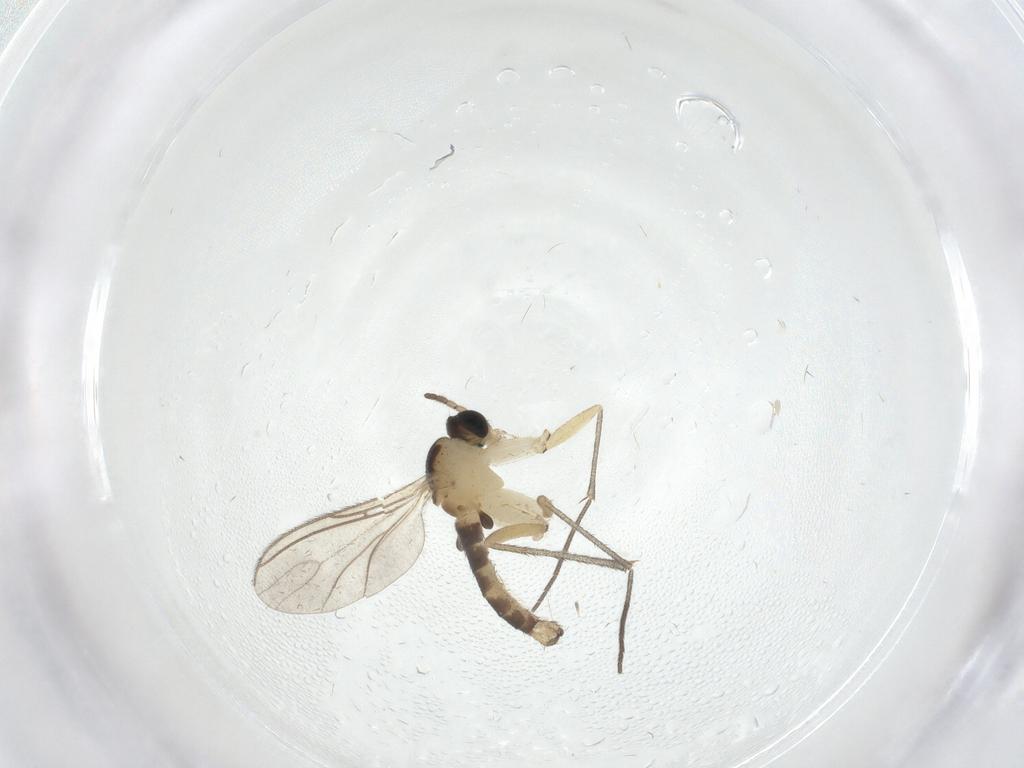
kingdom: Animalia
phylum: Arthropoda
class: Insecta
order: Diptera
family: Sciaridae
